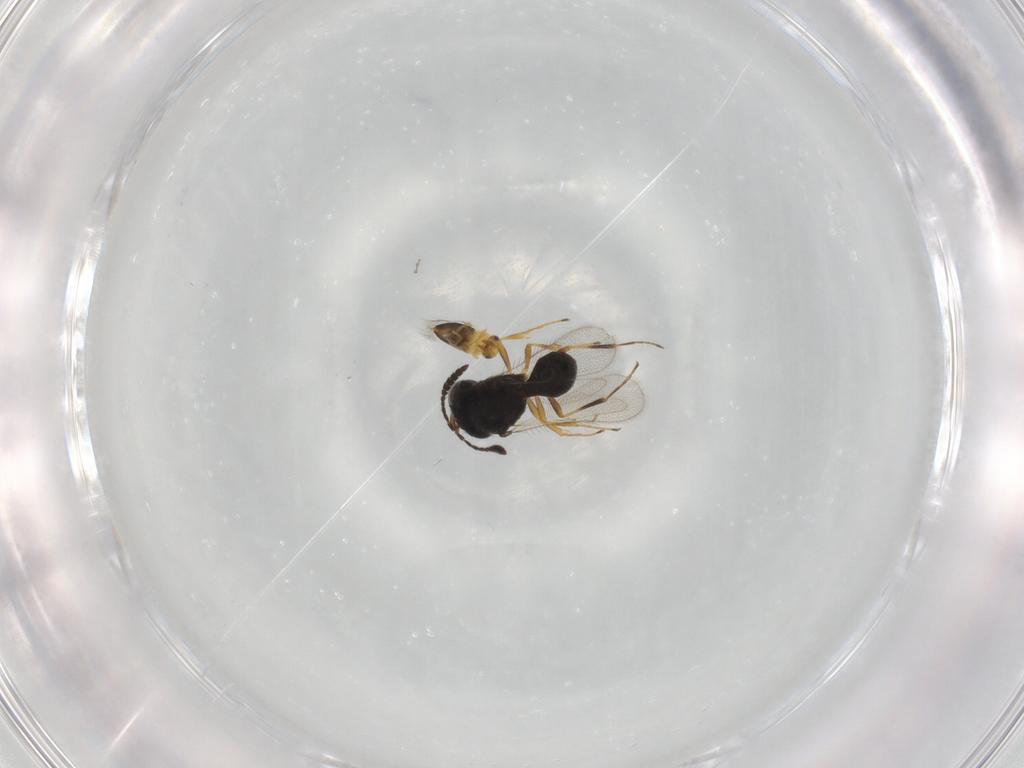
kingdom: Animalia
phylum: Arthropoda
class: Insecta
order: Hymenoptera
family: Signiphoridae
